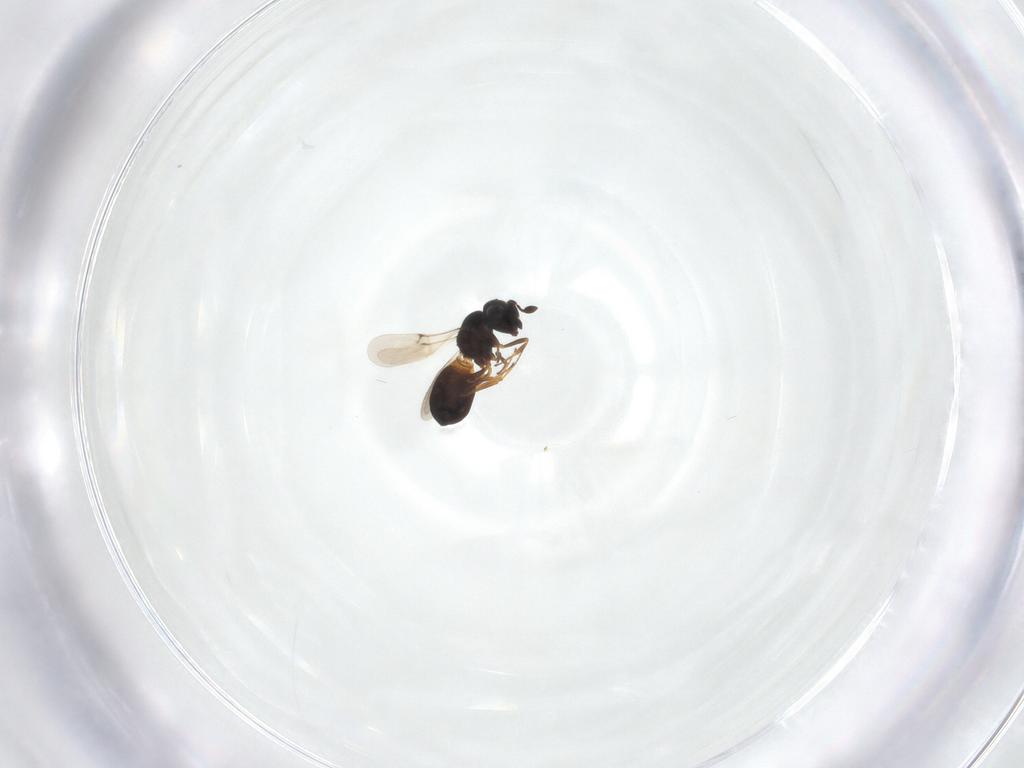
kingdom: Animalia
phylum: Arthropoda
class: Insecta
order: Hymenoptera
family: Scelionidae
